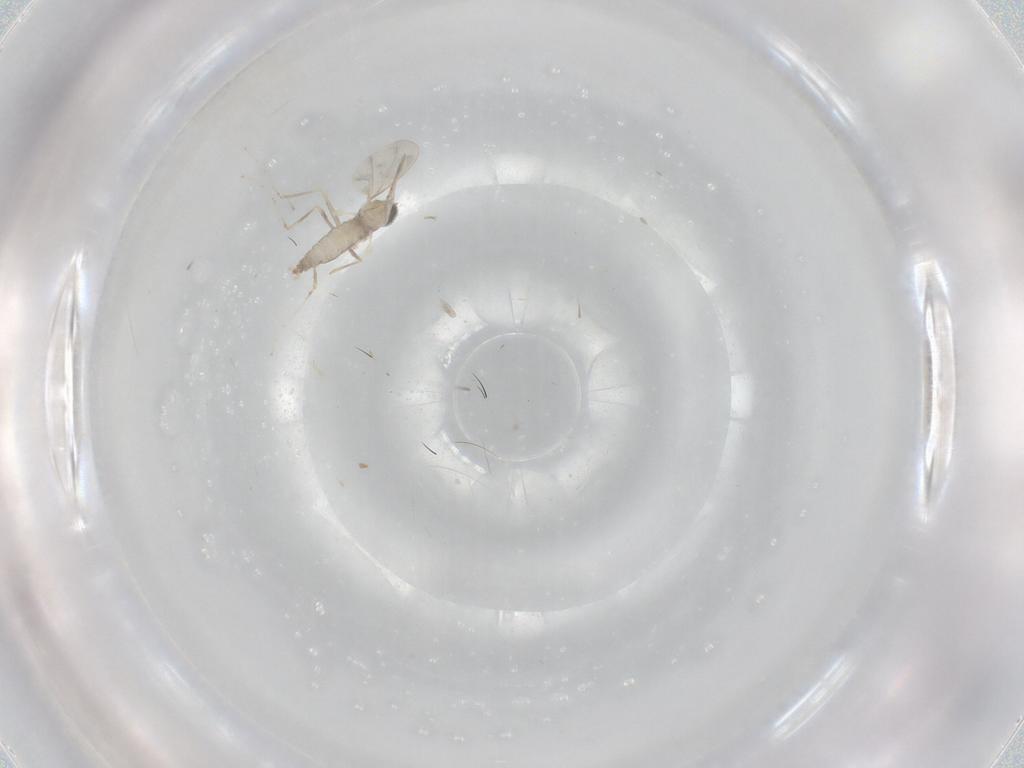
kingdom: Animalia
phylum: Arthropoda
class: Insecta
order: Diptera
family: Cecidomyiidae
